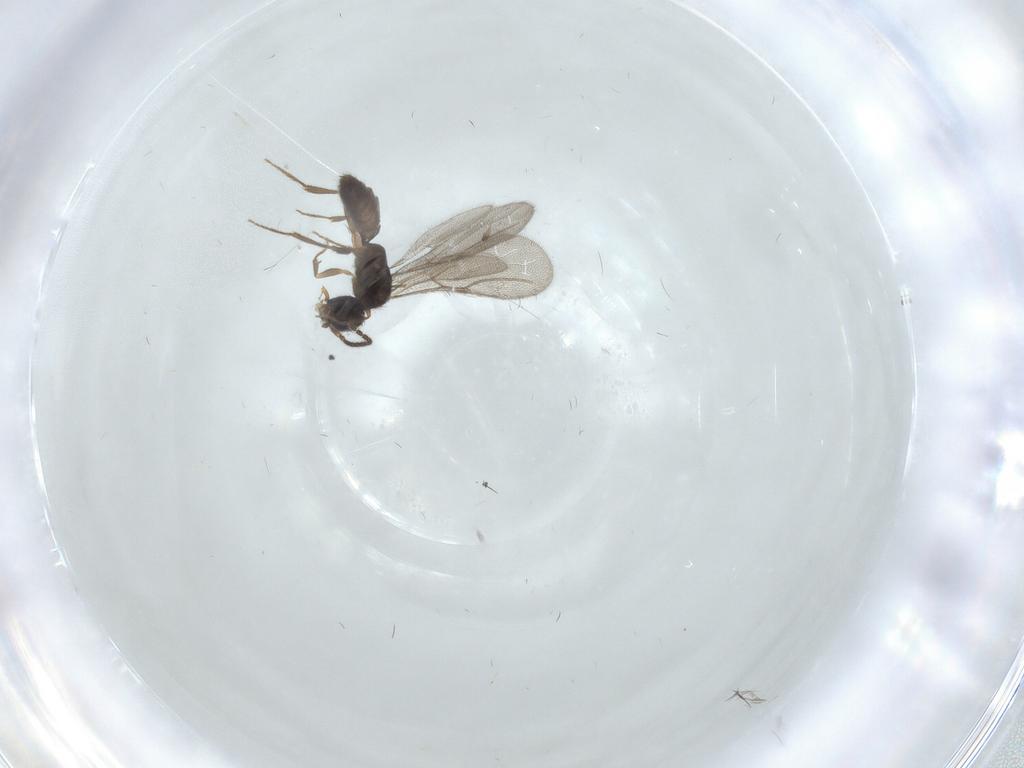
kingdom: Animalia
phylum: Arthropoda
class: Insecta
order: Hymenoptera
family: Bethylidae
